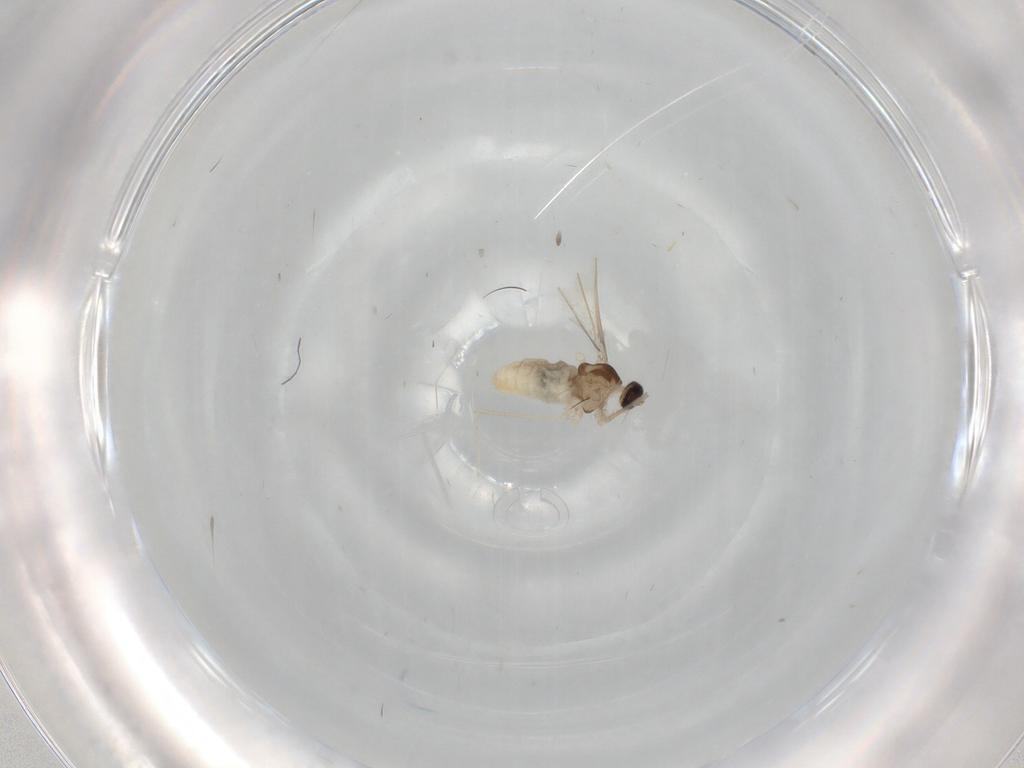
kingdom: Animalia
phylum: Arthropoda
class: Insecta
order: Diptera
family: Cecidomyiidae
